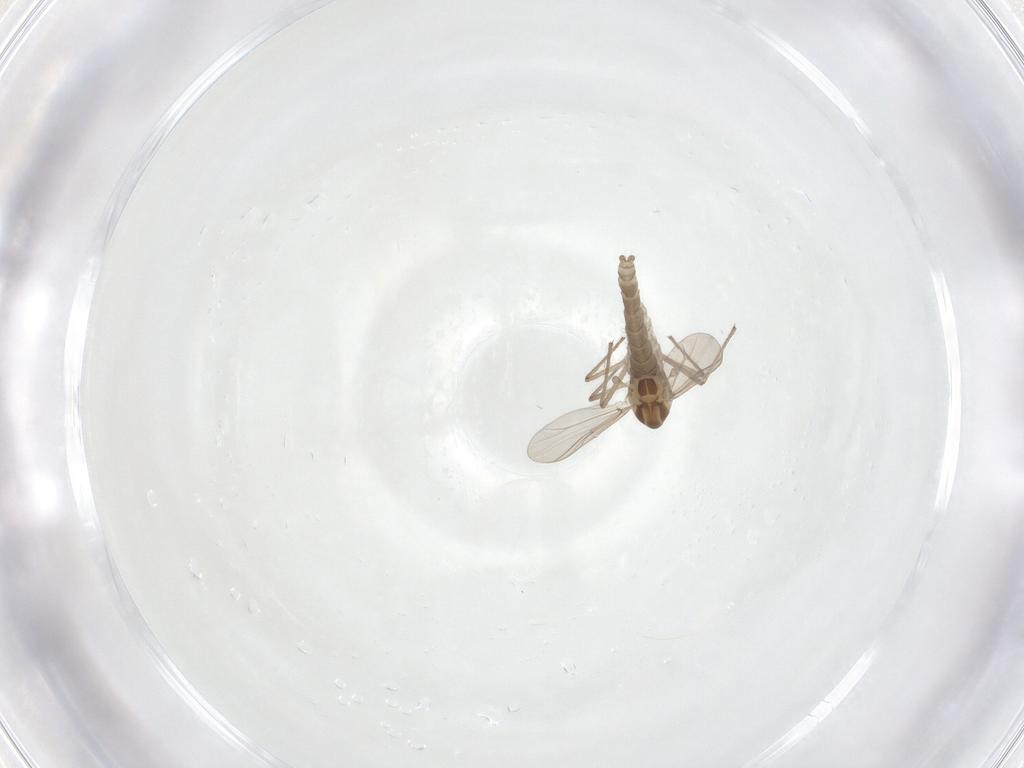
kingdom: Animalia
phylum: Arthropoda
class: Insecta
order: Diptera
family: Chironomidae
